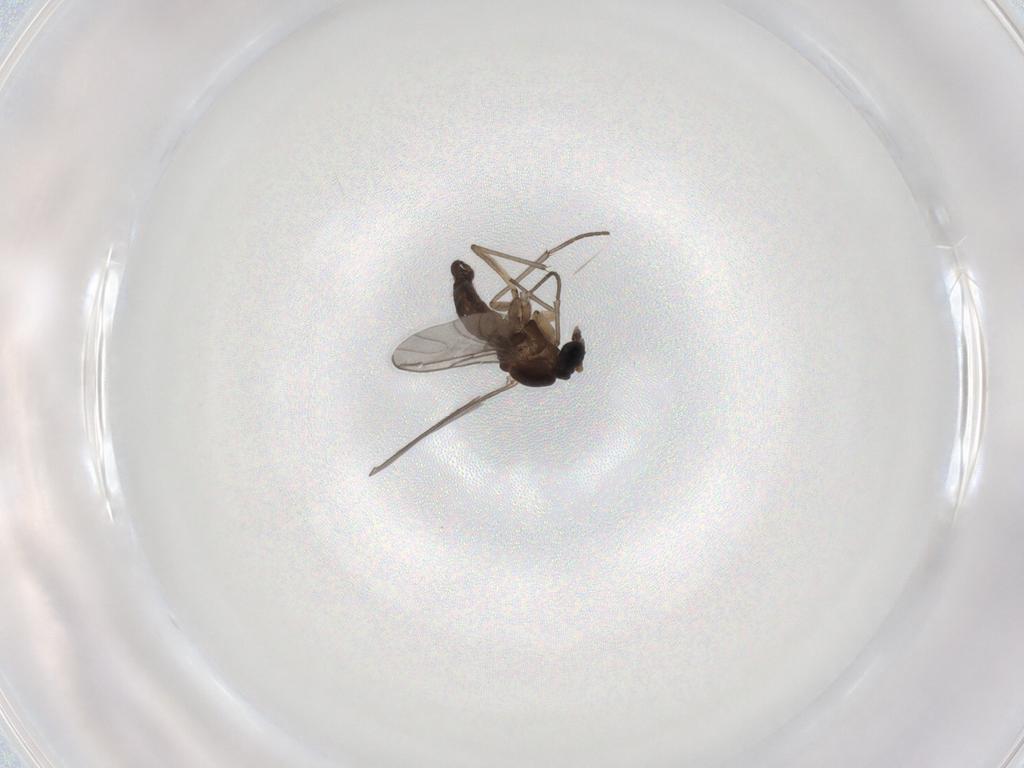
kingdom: Animalia
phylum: Arthropoda
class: Insecta
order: Diptera
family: Sciaridae
